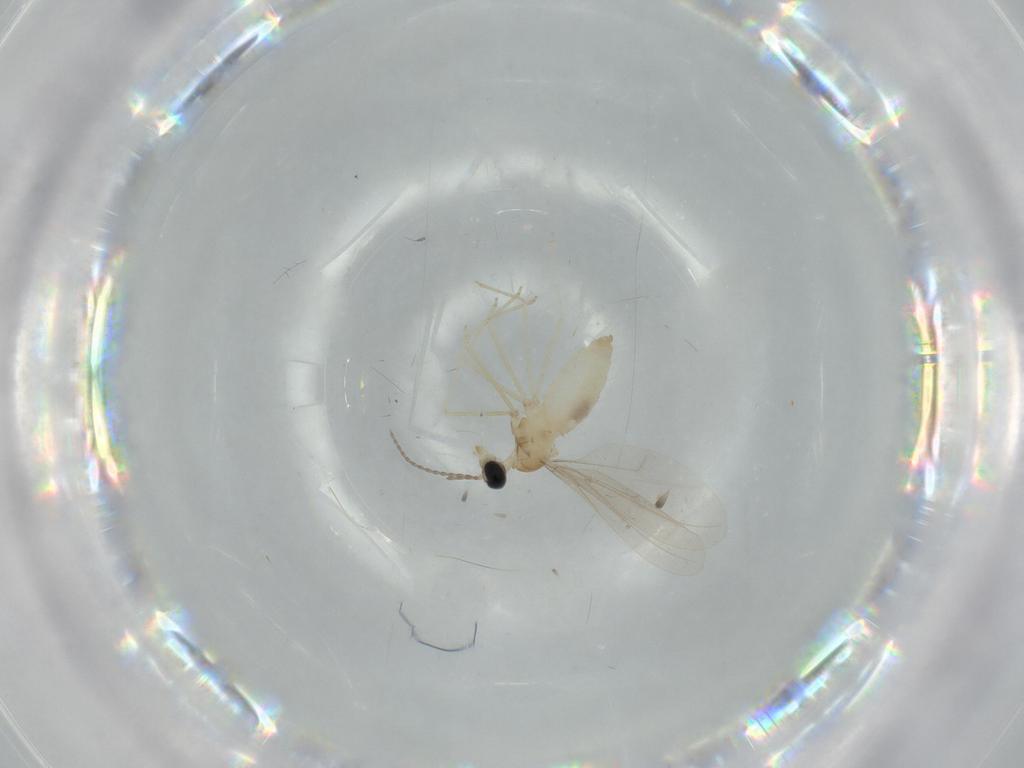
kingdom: Animalia
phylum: Arthropoda
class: Insecta
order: Diptera
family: Cecidomyiidae
